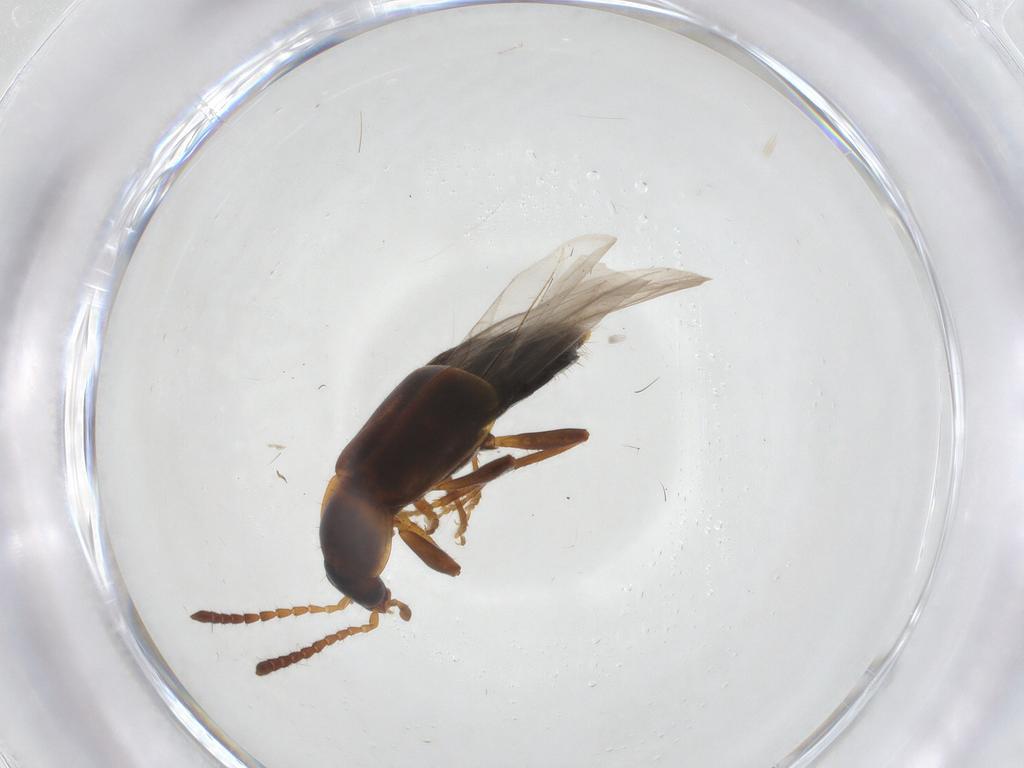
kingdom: Animalia
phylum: Arthropoda
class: Insecta
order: Coleoptera
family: Staphylinidae
